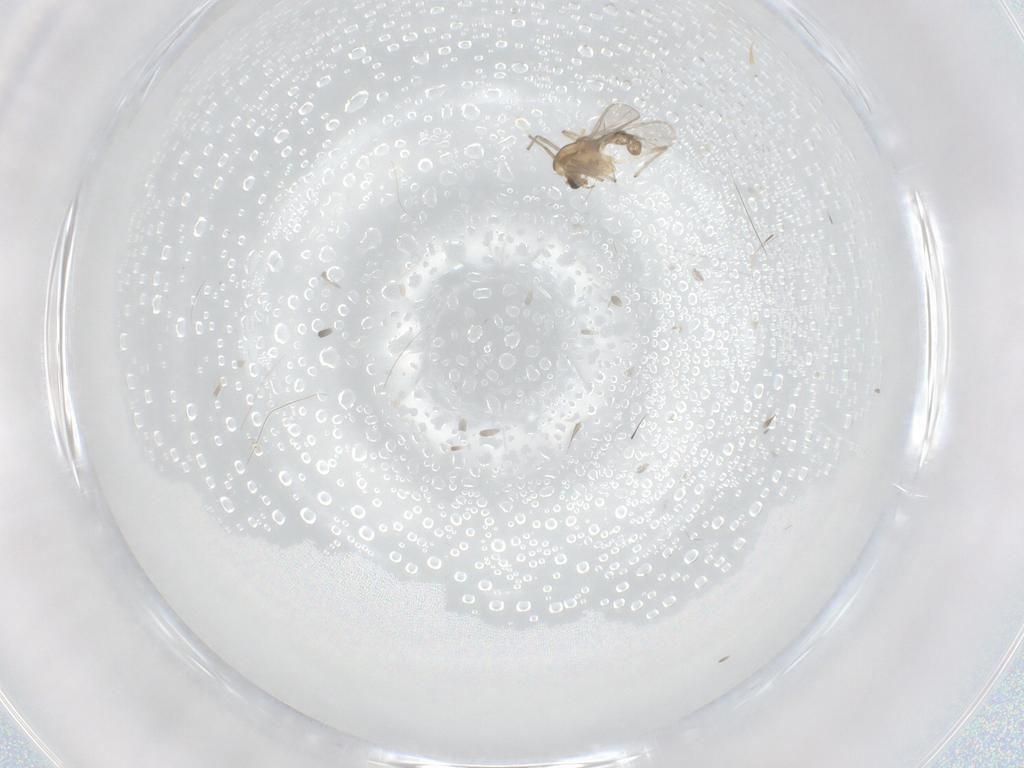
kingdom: Animalia
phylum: Arthropoda
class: Insecta
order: Diptera
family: Chironomidae
